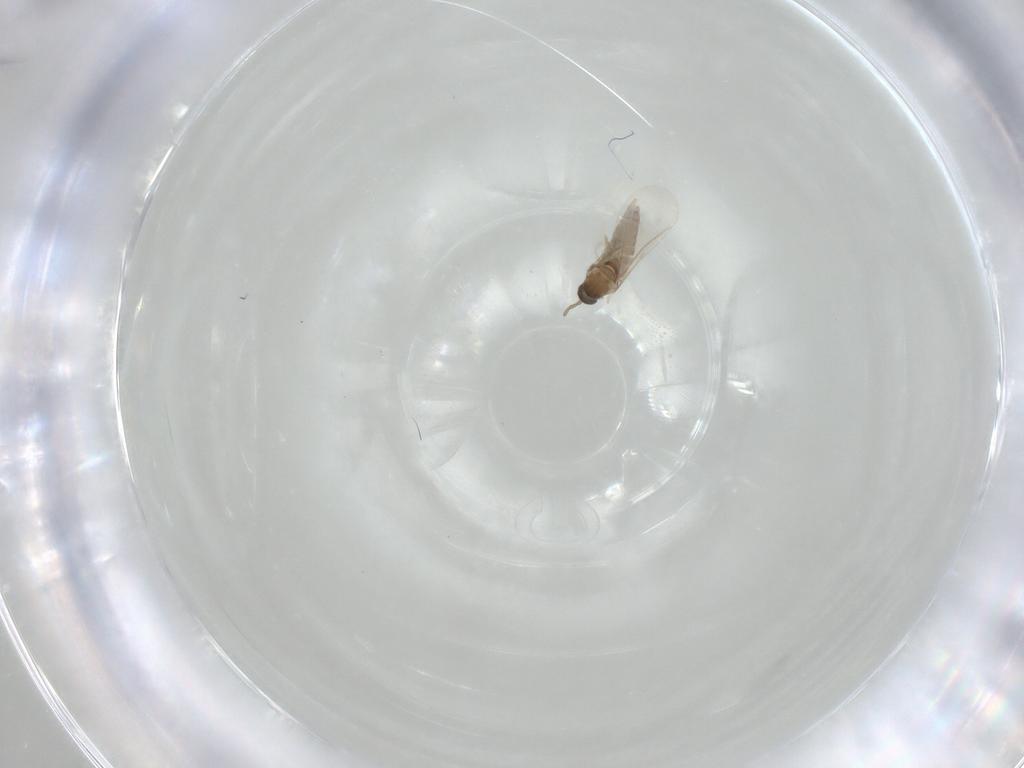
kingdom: Animalia
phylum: Arthropoda
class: Insecta
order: Diptera
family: Cecidomyiidae
